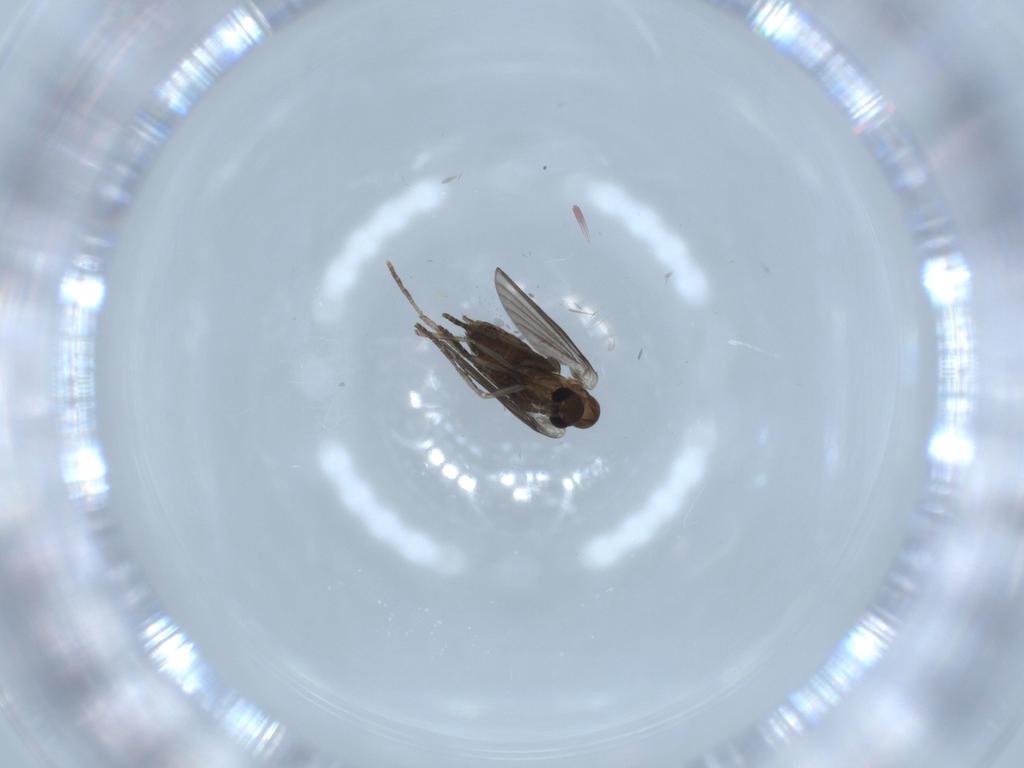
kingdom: Animalia
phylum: Arthropoda
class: Insecta
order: Diptera
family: Psychodidae
